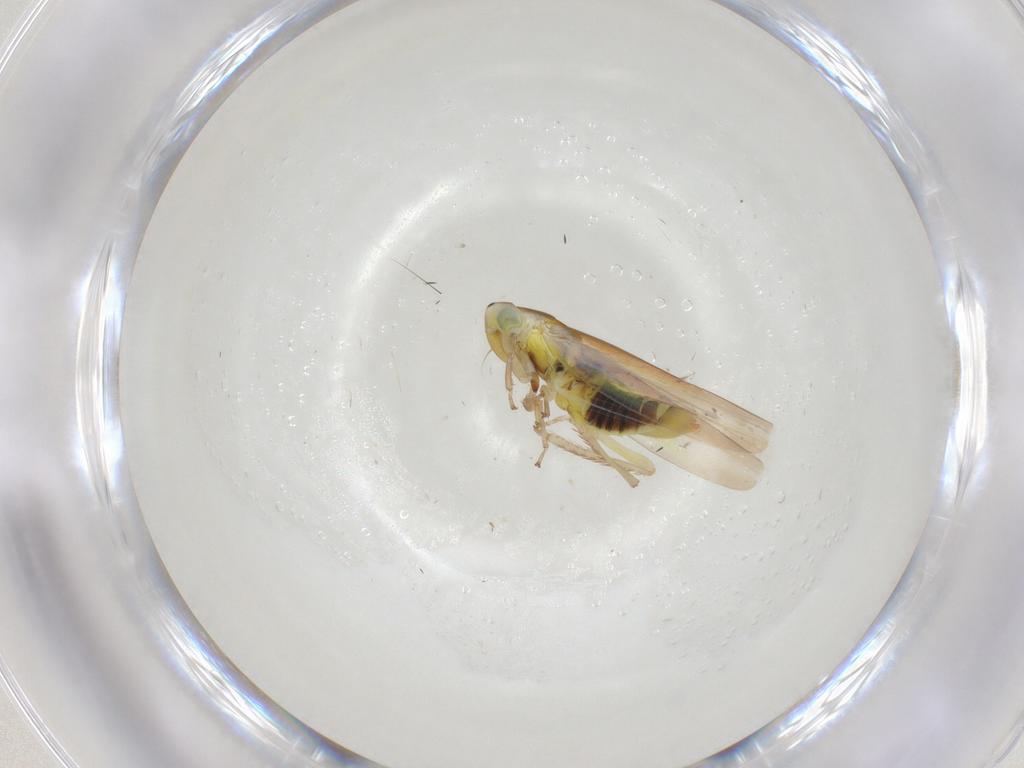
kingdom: Animalia
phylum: Arthropoda
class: Insecta
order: Hemiptera
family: Cicadellidae
